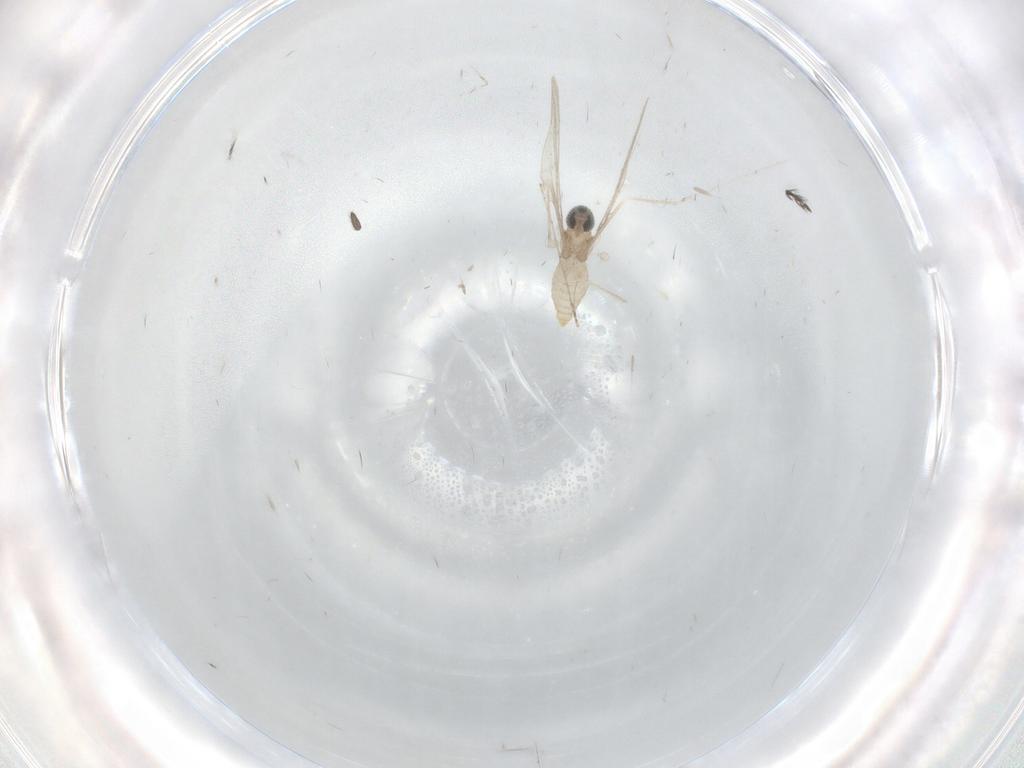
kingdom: Animalia
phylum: Arthropoda
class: Insecta
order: Diptera
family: Cecidomyiidae
